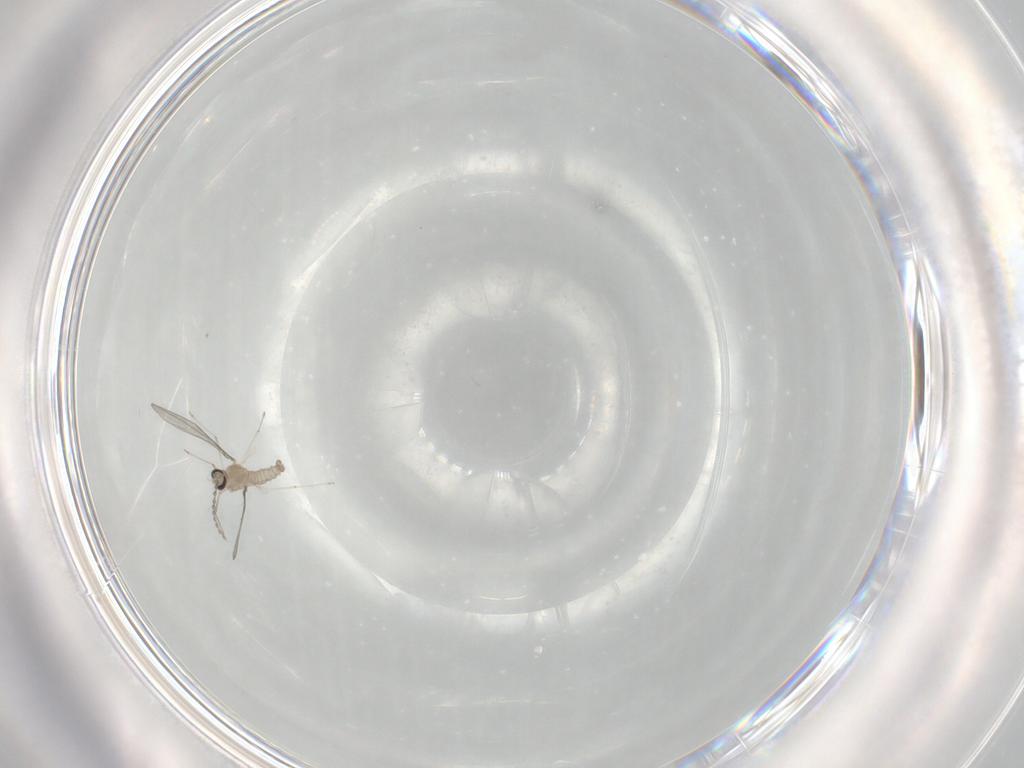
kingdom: Animalia
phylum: Arthropoda
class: Insecta
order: Diptera
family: Cecidomyiidae
